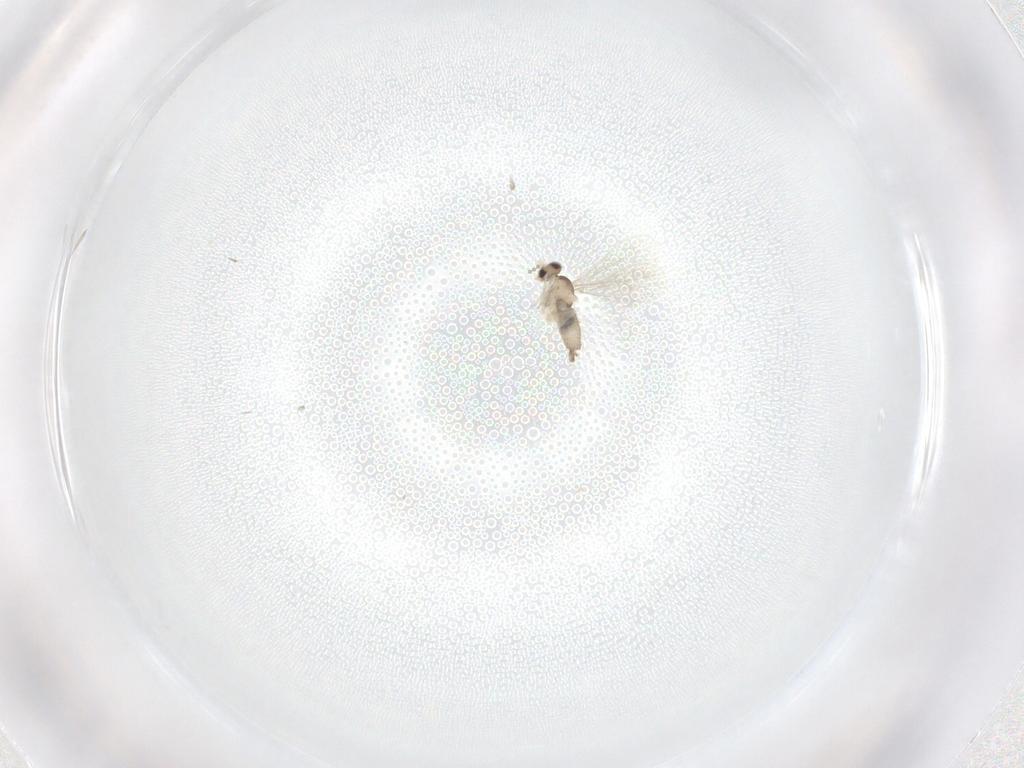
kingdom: Animalia
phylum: Arthropoda
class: Insecta
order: Diptera
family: Cecidomyiidae
